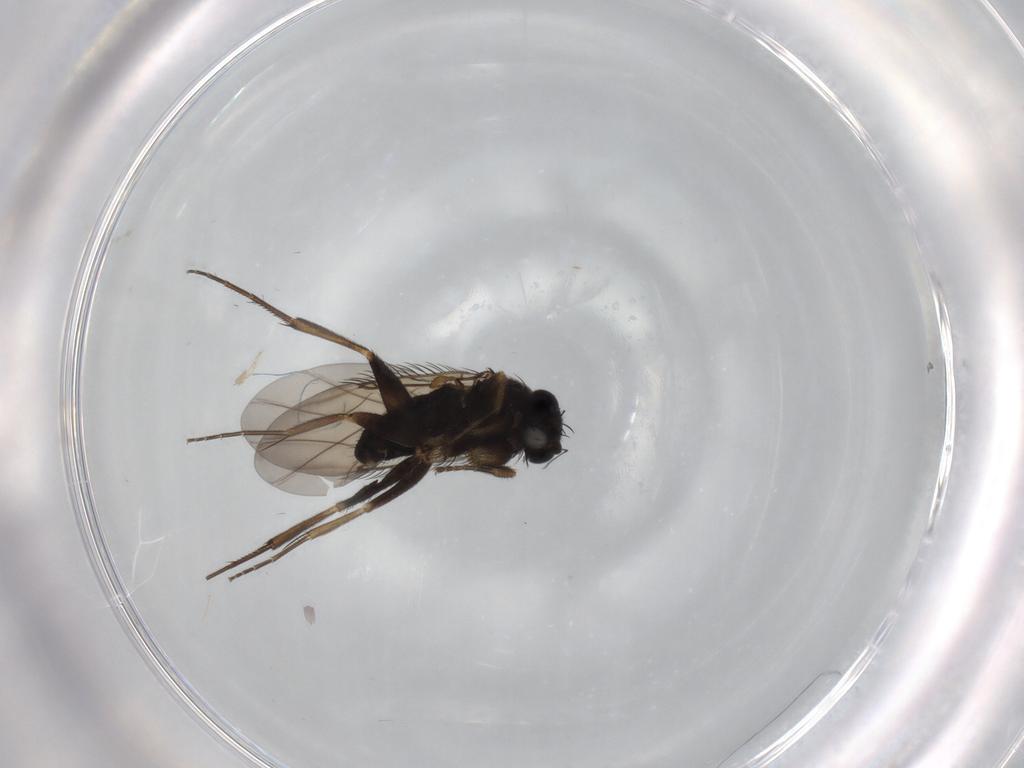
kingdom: Animalia
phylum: Arthropoda
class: Insecta
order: Diptera
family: Phoridae
